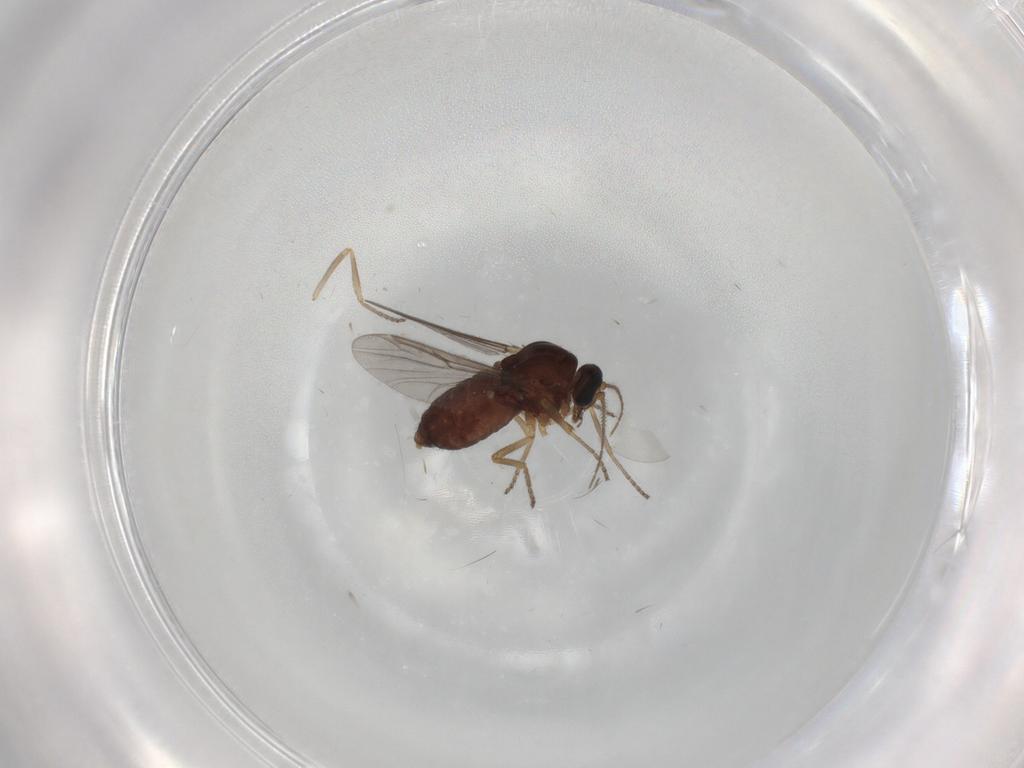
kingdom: Animalia
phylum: Arthropoda
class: Insecta
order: Diptera
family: Ceratopogonidae
